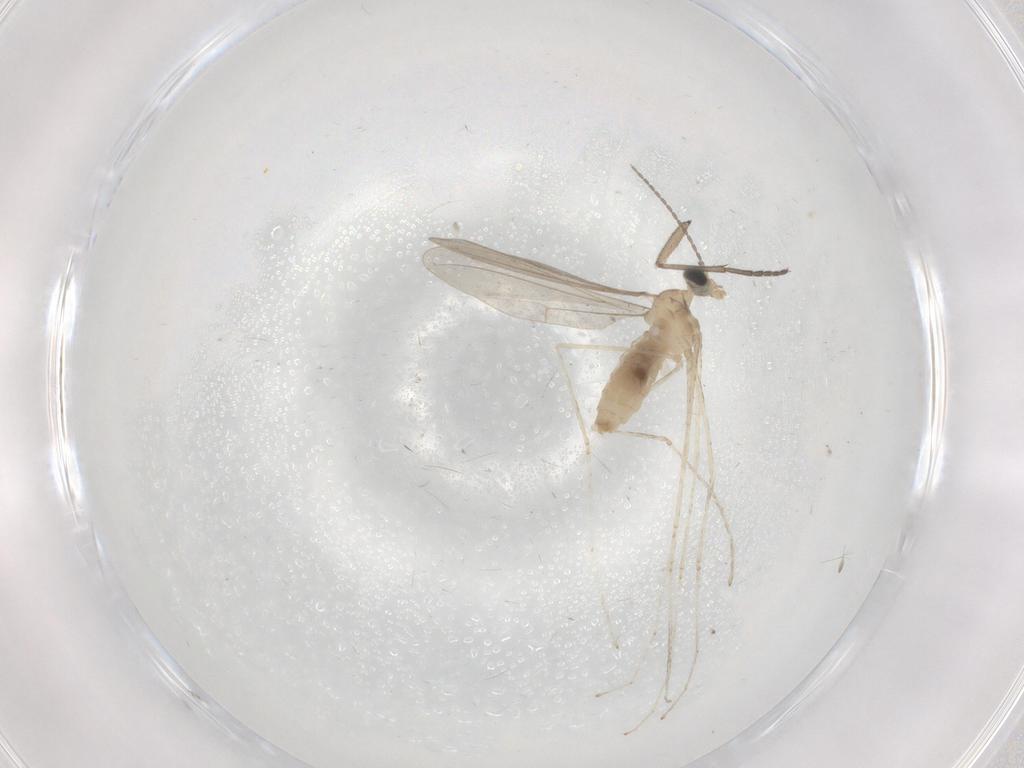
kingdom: Animalia
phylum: Arthropoda
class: Insecta
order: Diptera
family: Cecidomyiidae
